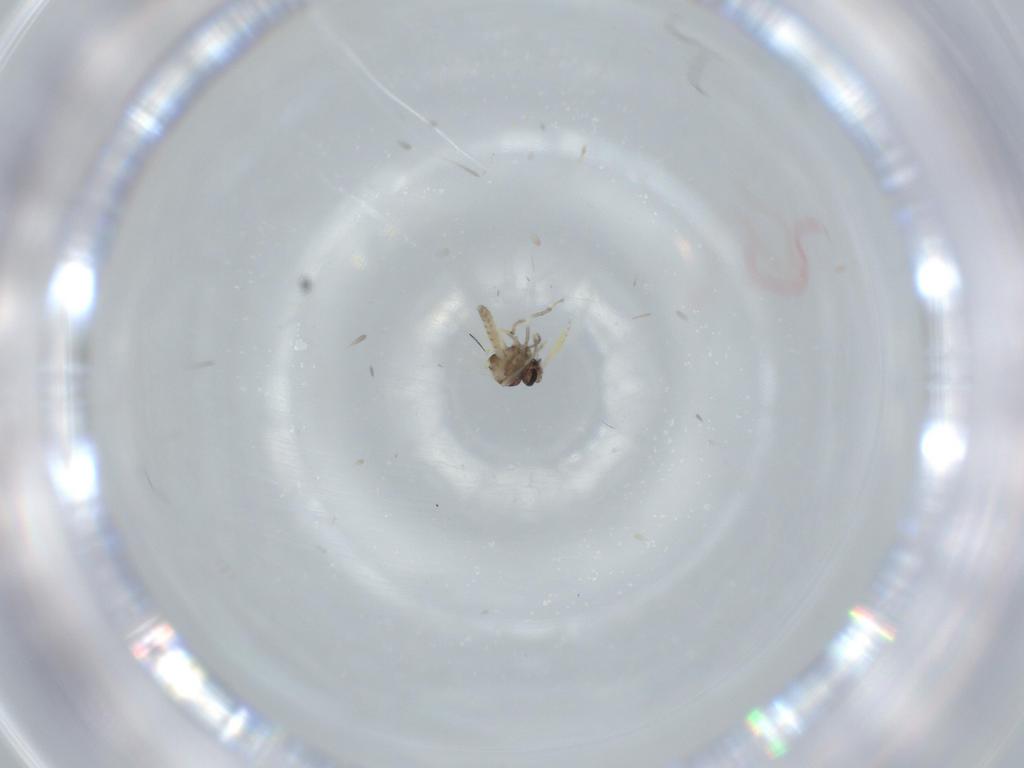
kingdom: Animalia
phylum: Arthropoda
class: Insecta
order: Diptera
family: Ceratopogonidae
